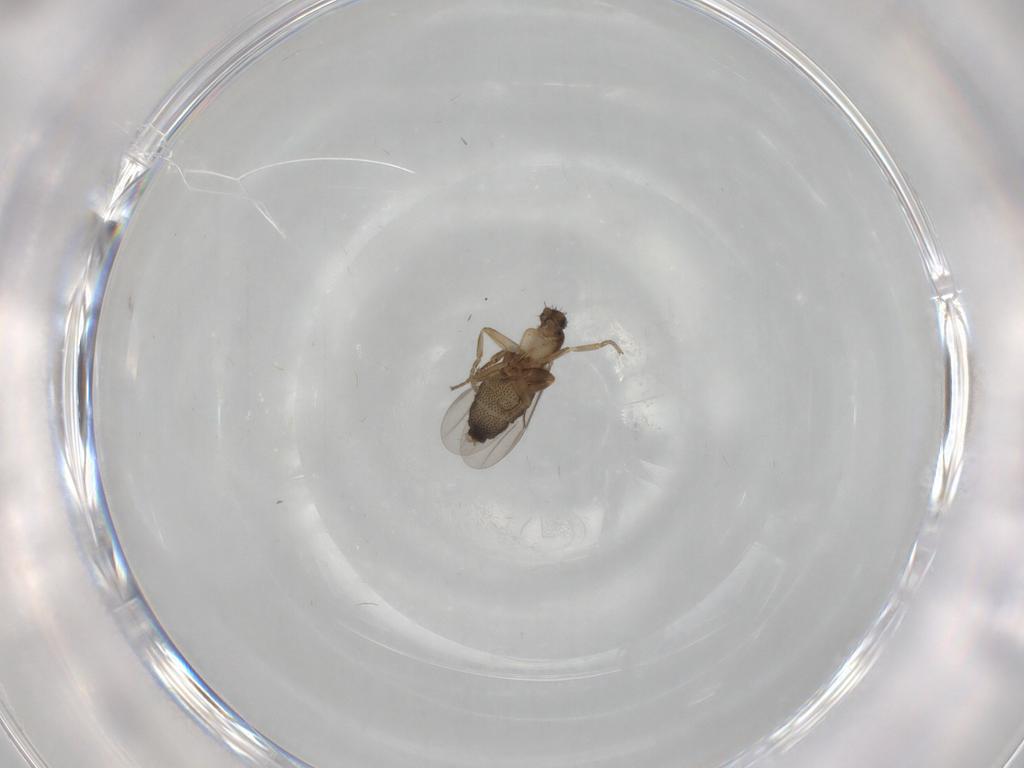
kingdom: Animalia
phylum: Arthropoda
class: Insecta
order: Diptera
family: Phoridae
